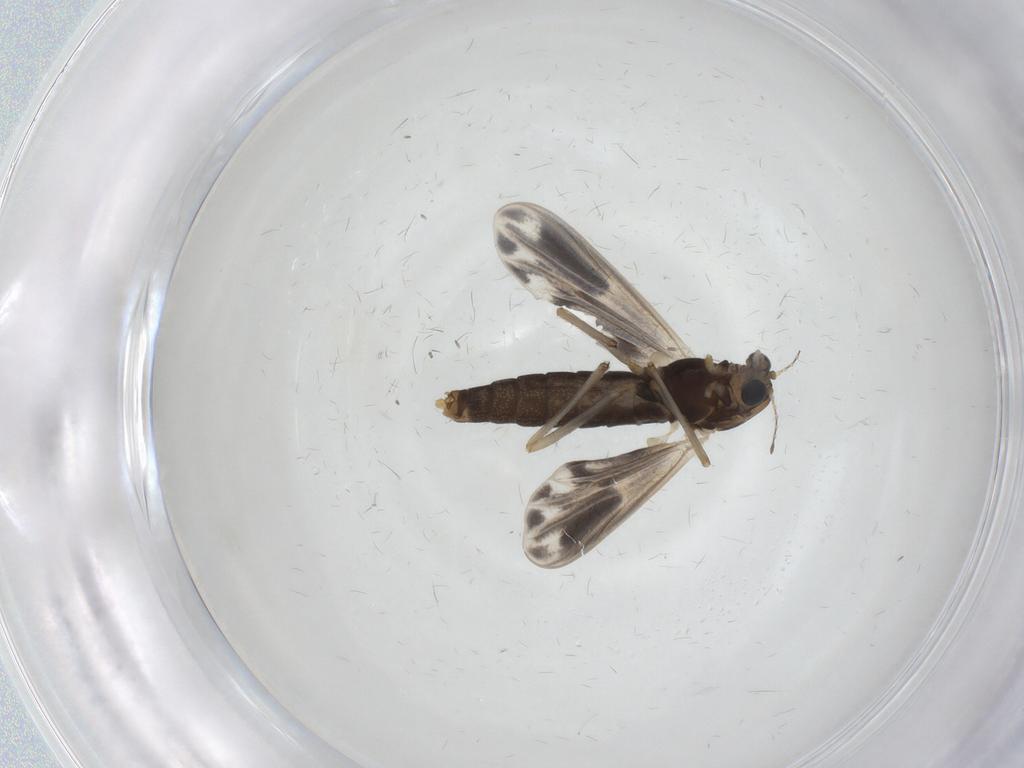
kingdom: Animalia
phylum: Arthropoda
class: Insecta
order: Diptera
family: Chironomidae
